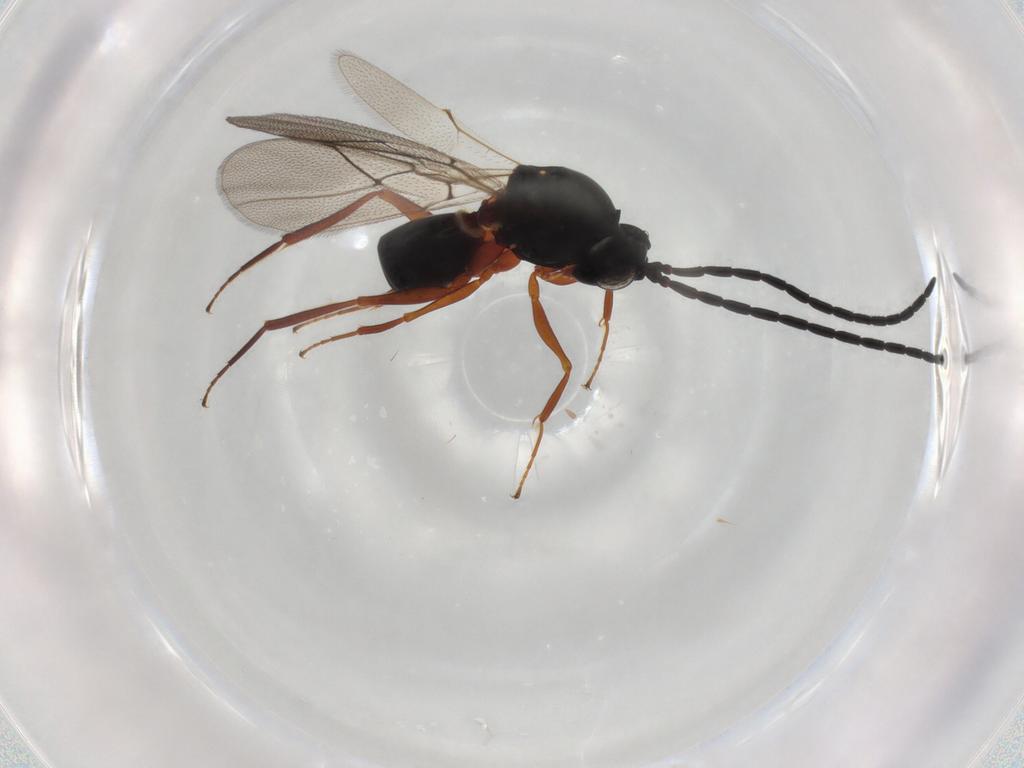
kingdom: Animalia
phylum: Arthropoda
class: Insecta
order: Hymenoptera
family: Figitidae
